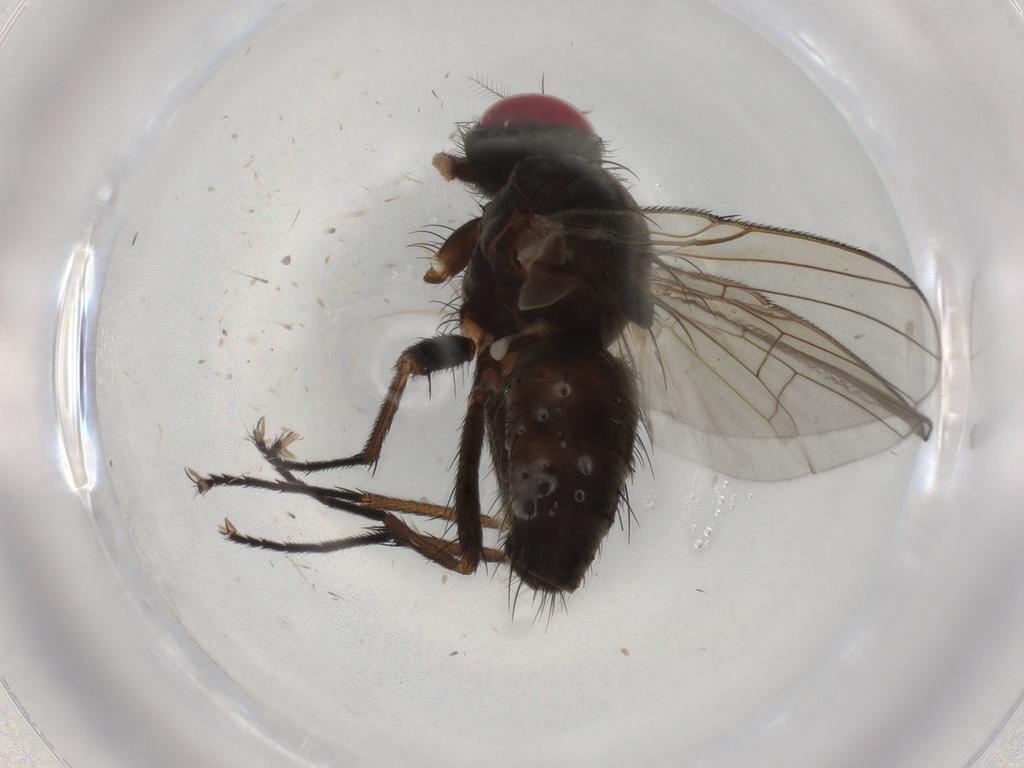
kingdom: Animalia
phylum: Arthropoda
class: Insecta
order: Diptera
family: Muscidae
